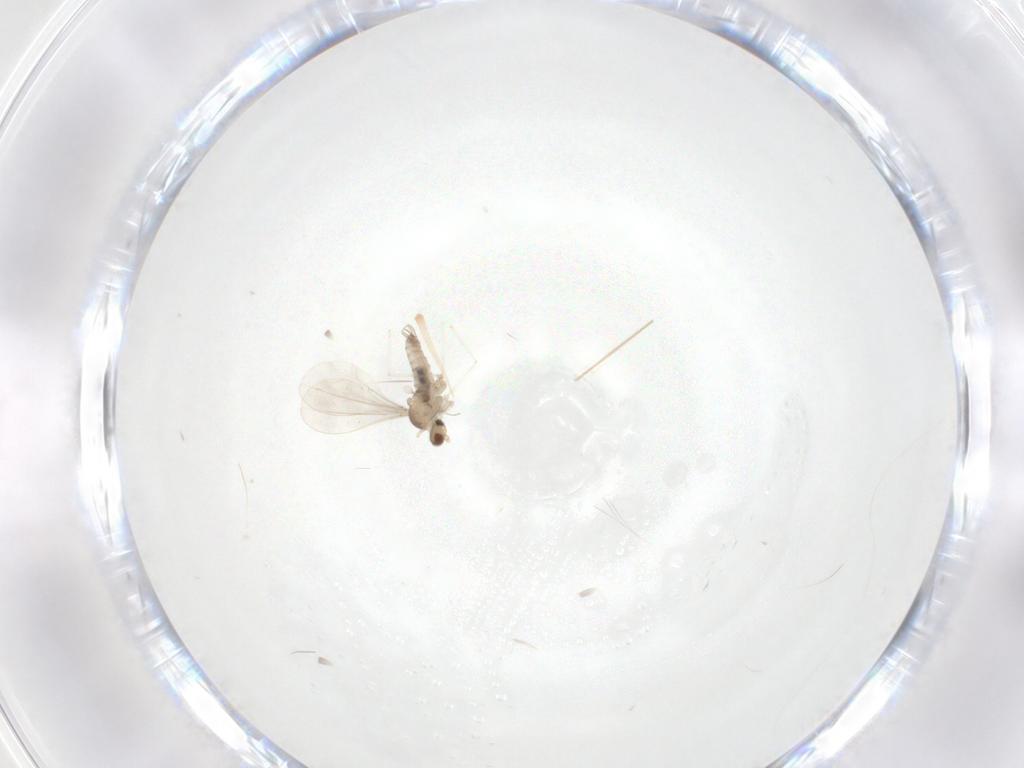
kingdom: Animalia
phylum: Arthropoda
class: Insecta
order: Diptera
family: Phoridae
